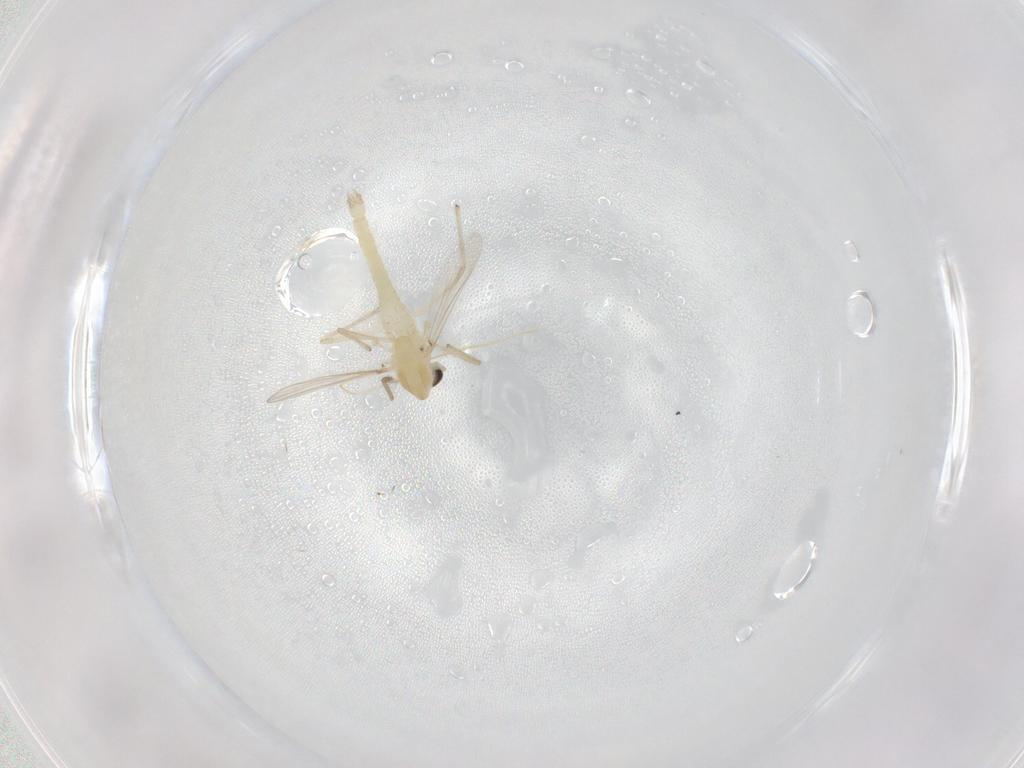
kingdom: Animalia
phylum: Arthropoda
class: Insecta
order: Diptera
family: Chironomidae
